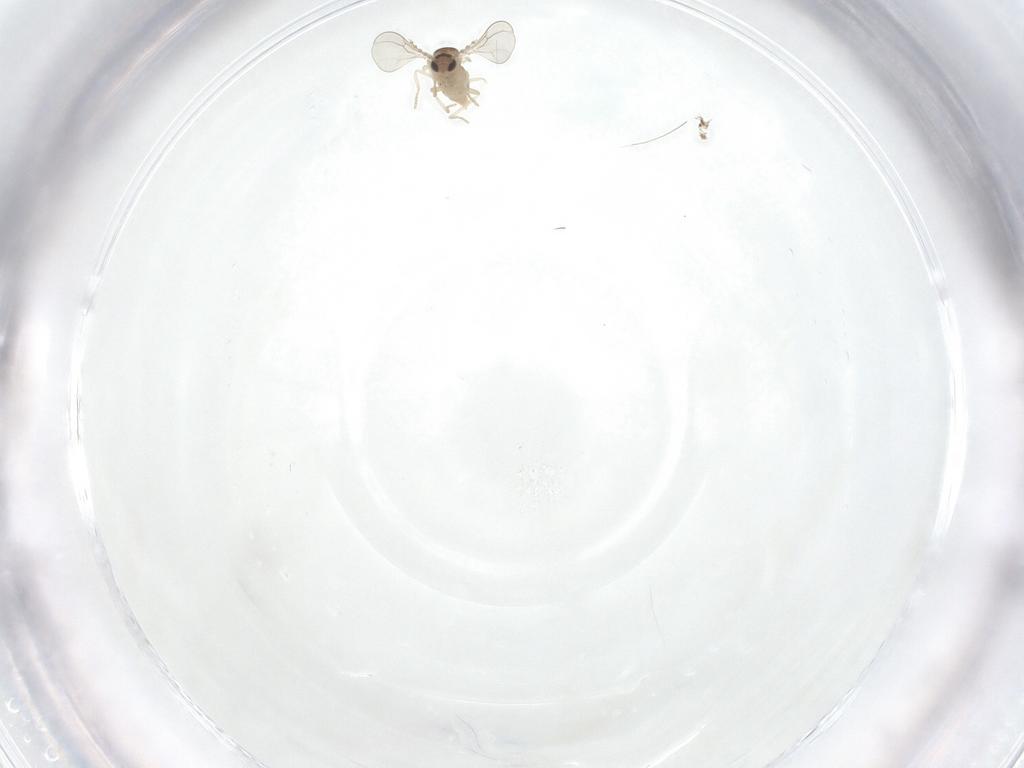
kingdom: Animalia
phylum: Arthropoda
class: Insecta
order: Diptera
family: Cecidomyiidae
